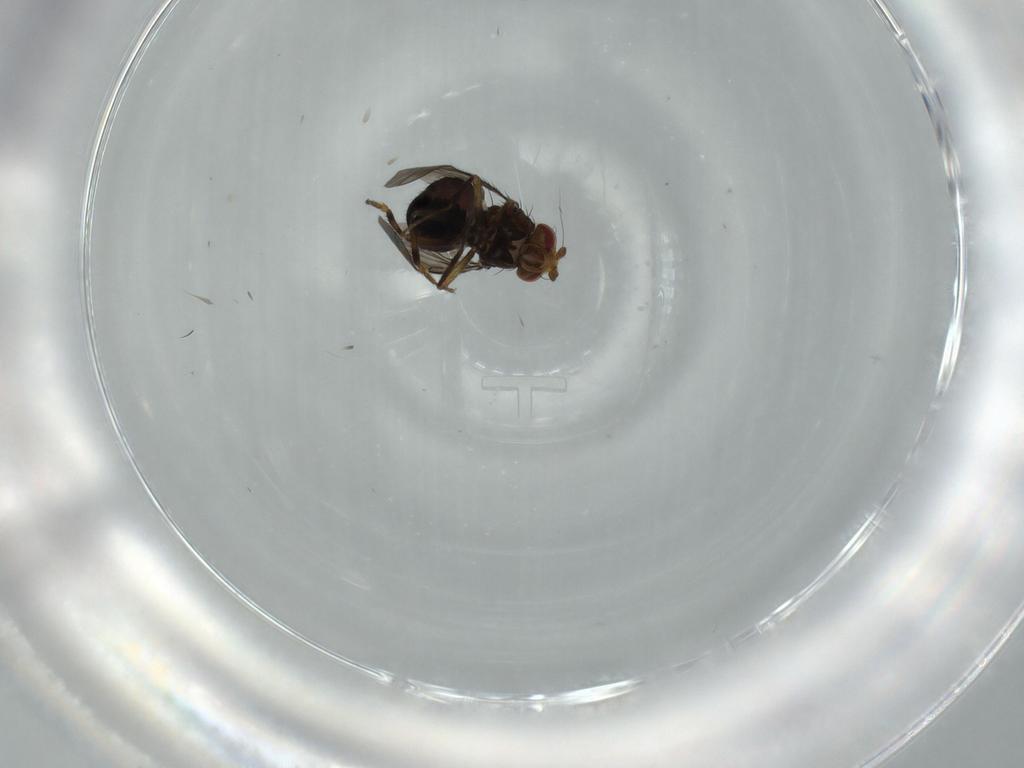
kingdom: Animalia
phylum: Arthropoda
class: Insecta
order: Diptera
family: Sphaeroceridae
